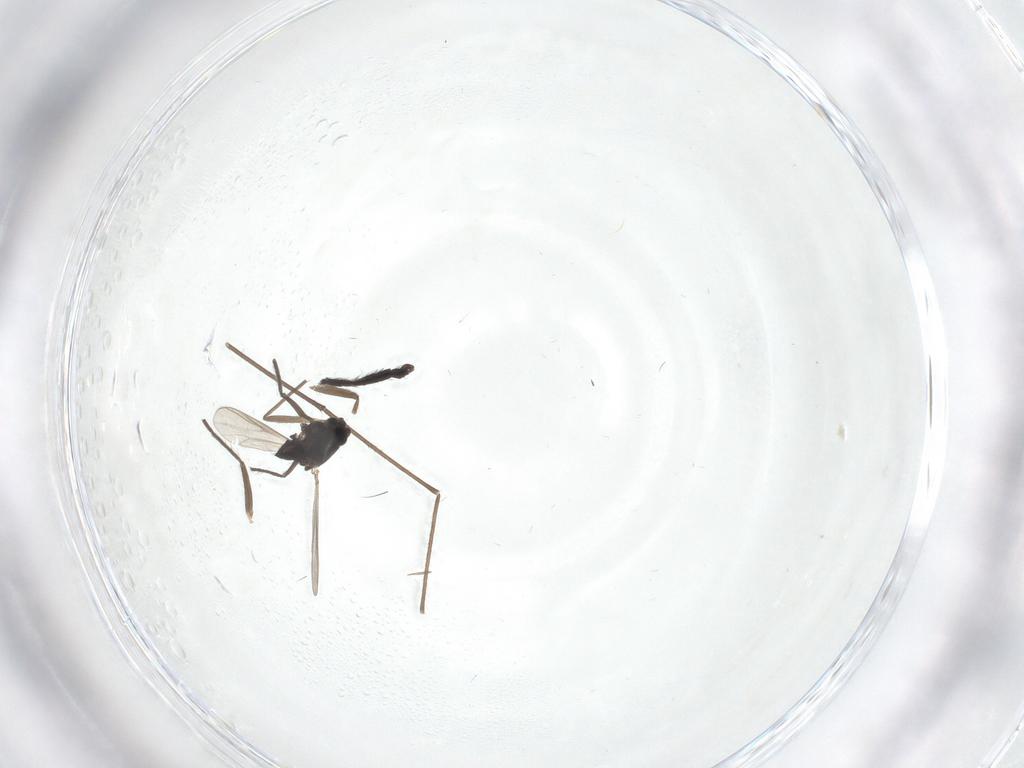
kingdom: Animalia
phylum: Arthropoda
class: Insecta
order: Diptera
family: Chironomidae
